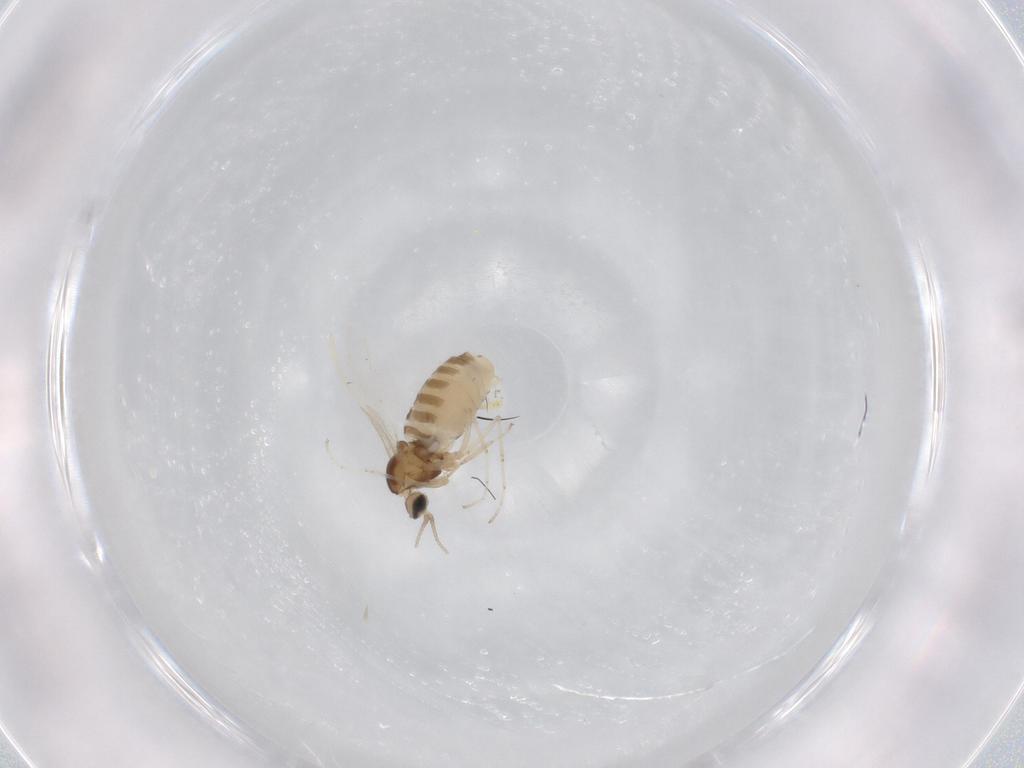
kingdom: Animalia
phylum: Arthropoda
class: Insecta
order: Diptera
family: Cecidomyiidae
